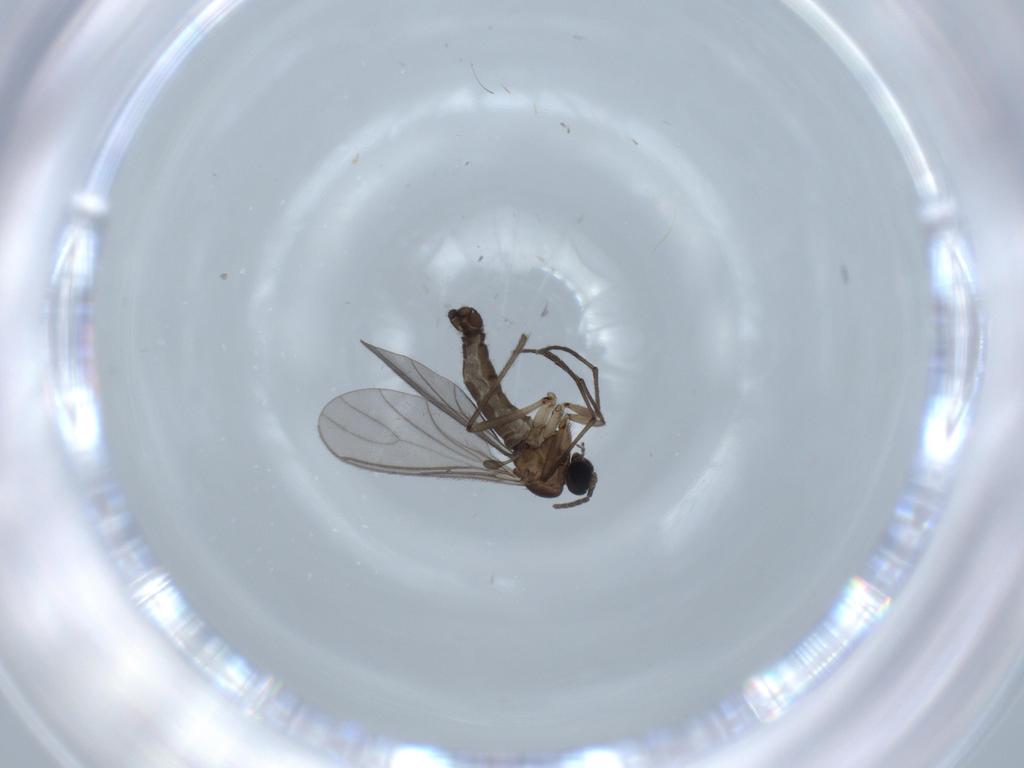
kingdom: Animalia
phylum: Arthropoda
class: Insecta
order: Diptera
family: Sciaridae
